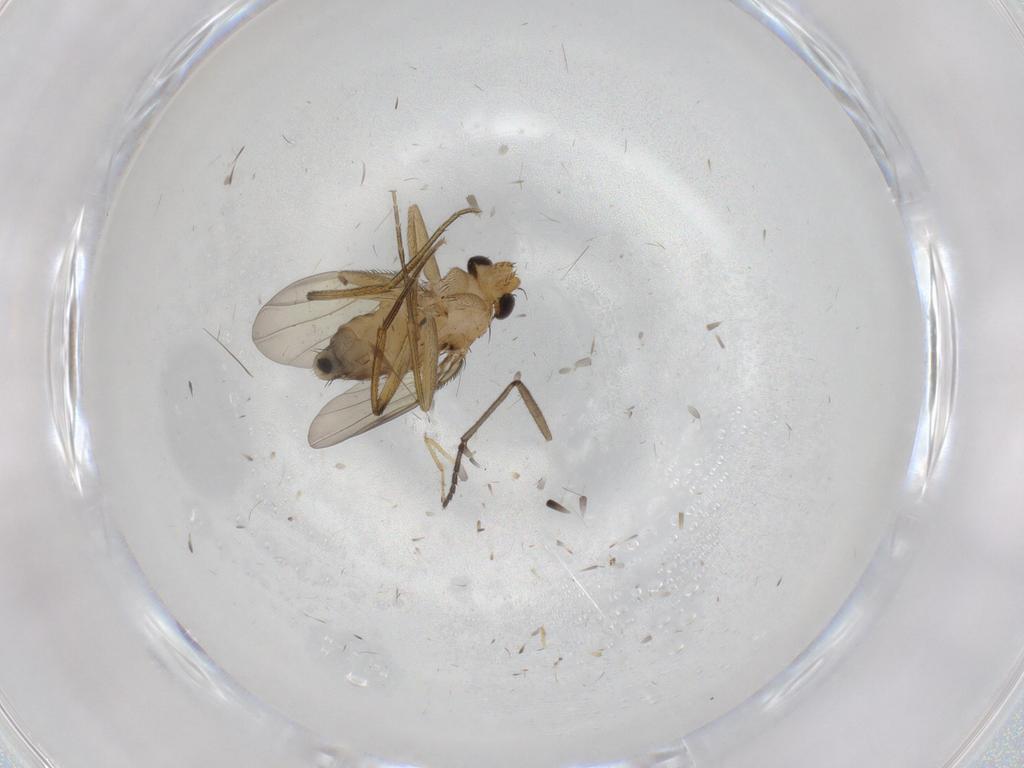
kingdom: Animalia
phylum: Arthropoda
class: Insecta
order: Diptera
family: Phoridae
